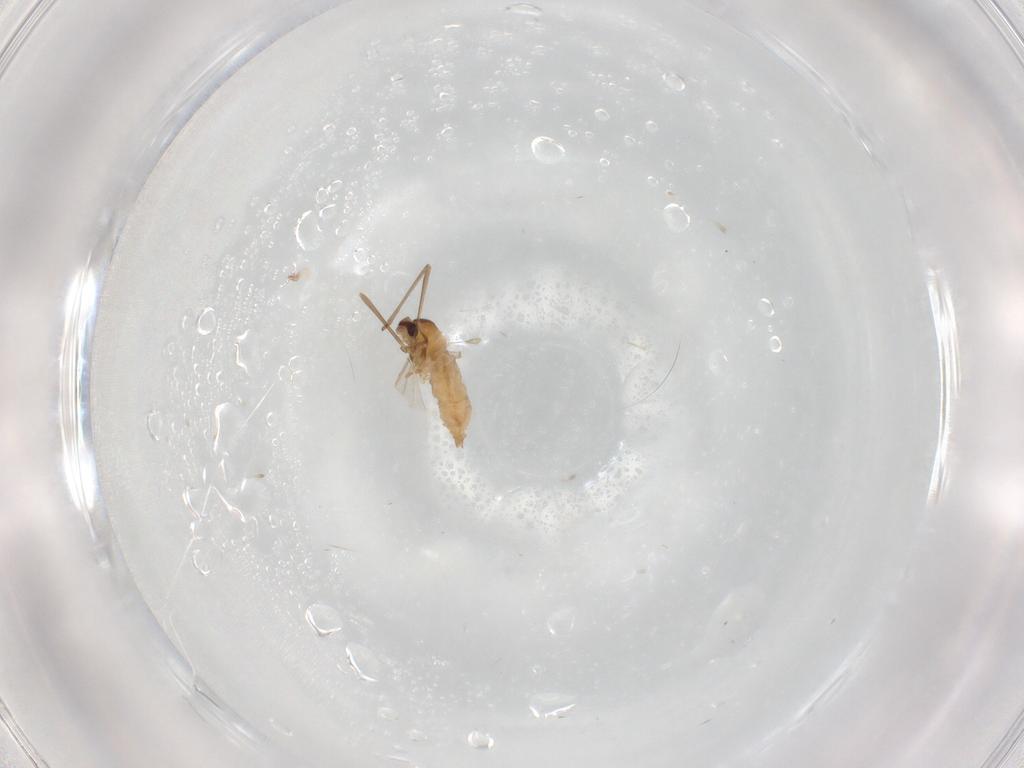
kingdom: Animalia
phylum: Arthropoda
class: Insecta
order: Diptera
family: Cecidomyiidae
